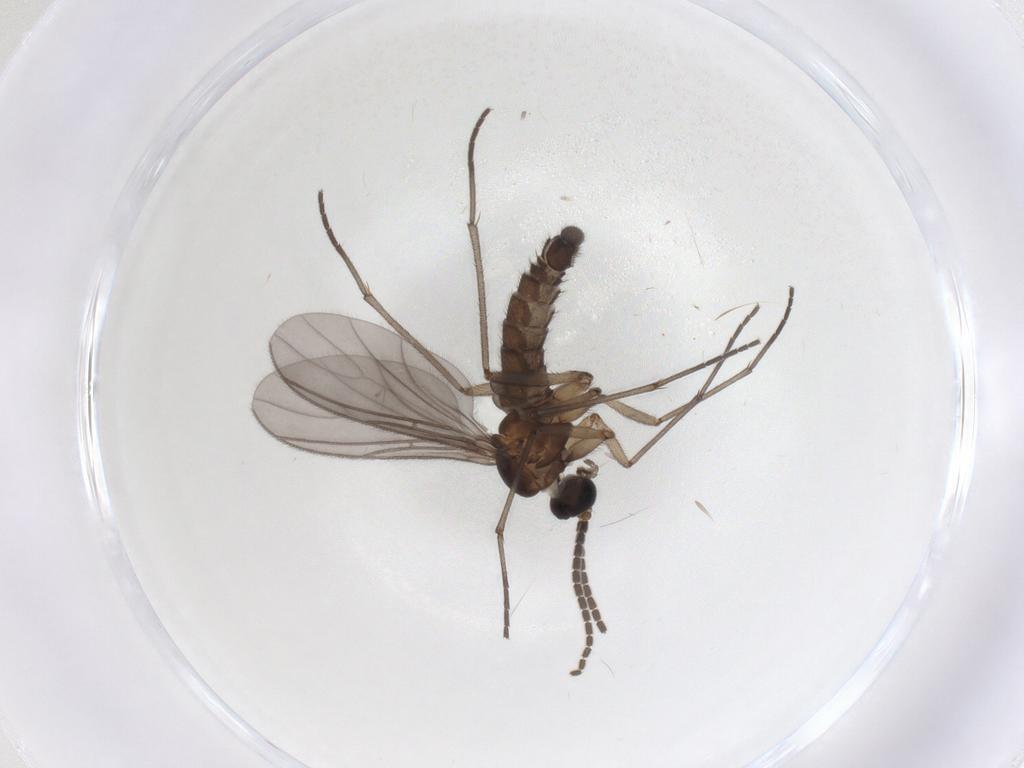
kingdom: Animalia
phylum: Arthropoda
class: Insecta
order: Diptera
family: Sciaridae
